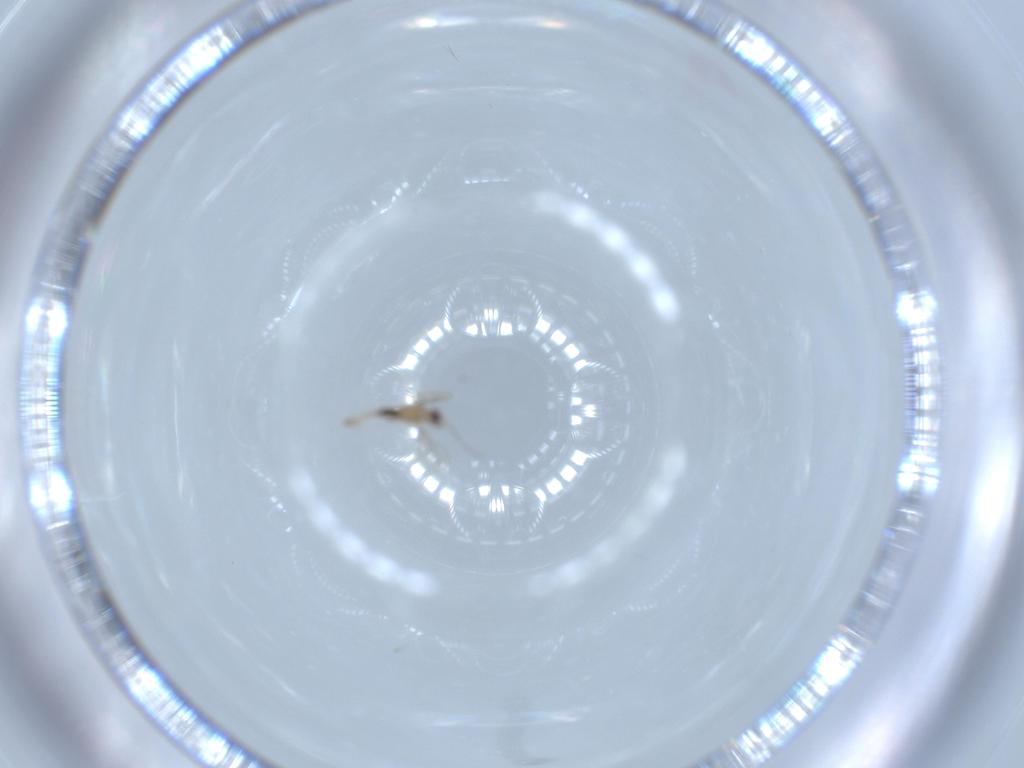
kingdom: Animalia
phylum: Arthropoda
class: Insecta
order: Diptera
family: Cecidomyiidae
